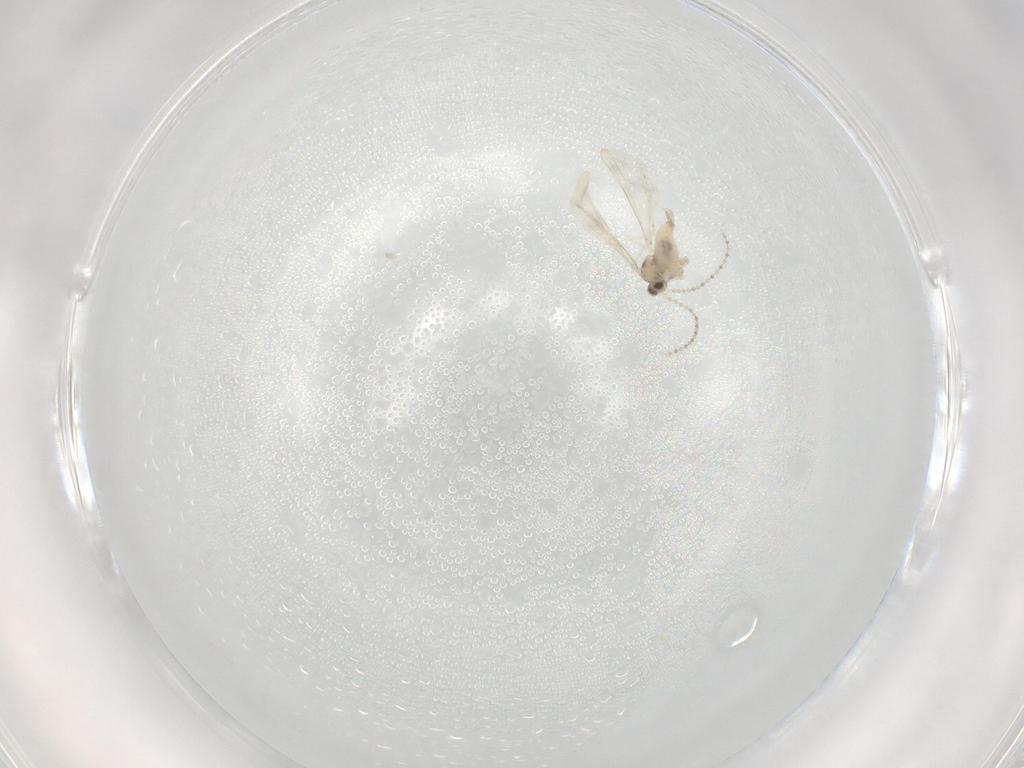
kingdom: Animalia
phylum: Arthropoda
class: Insecta
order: Diptera
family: Cecidomyiidae
